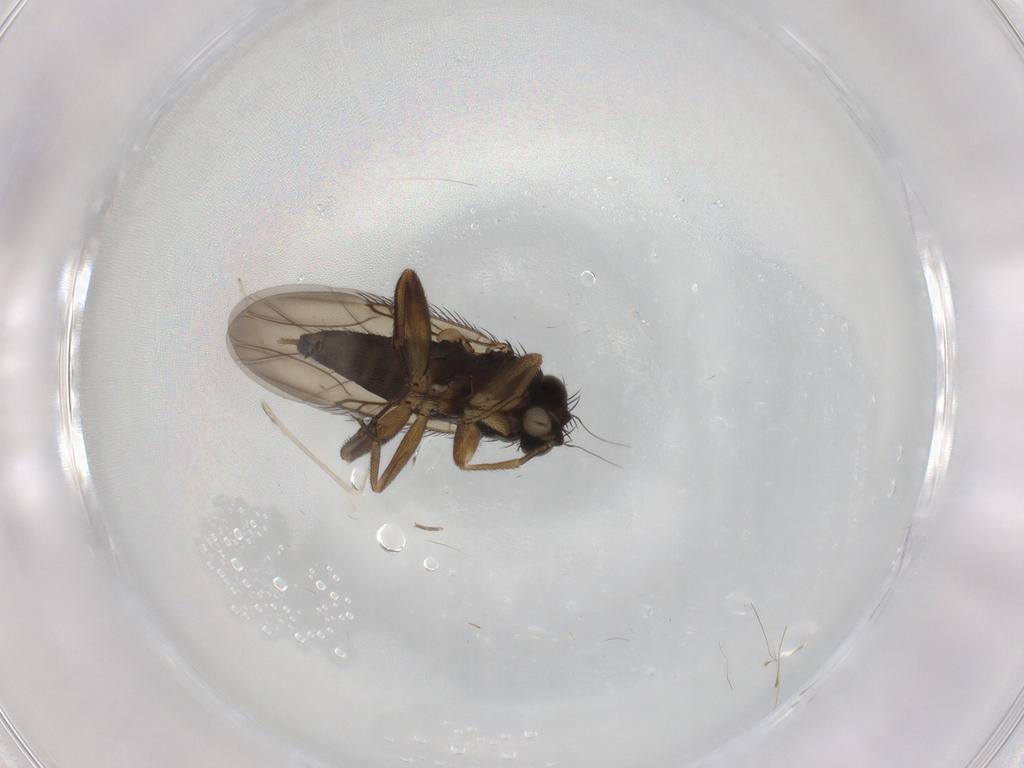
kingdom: Animalia
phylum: Arthropoda
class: Insecta
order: Diptera
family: Phoridae
